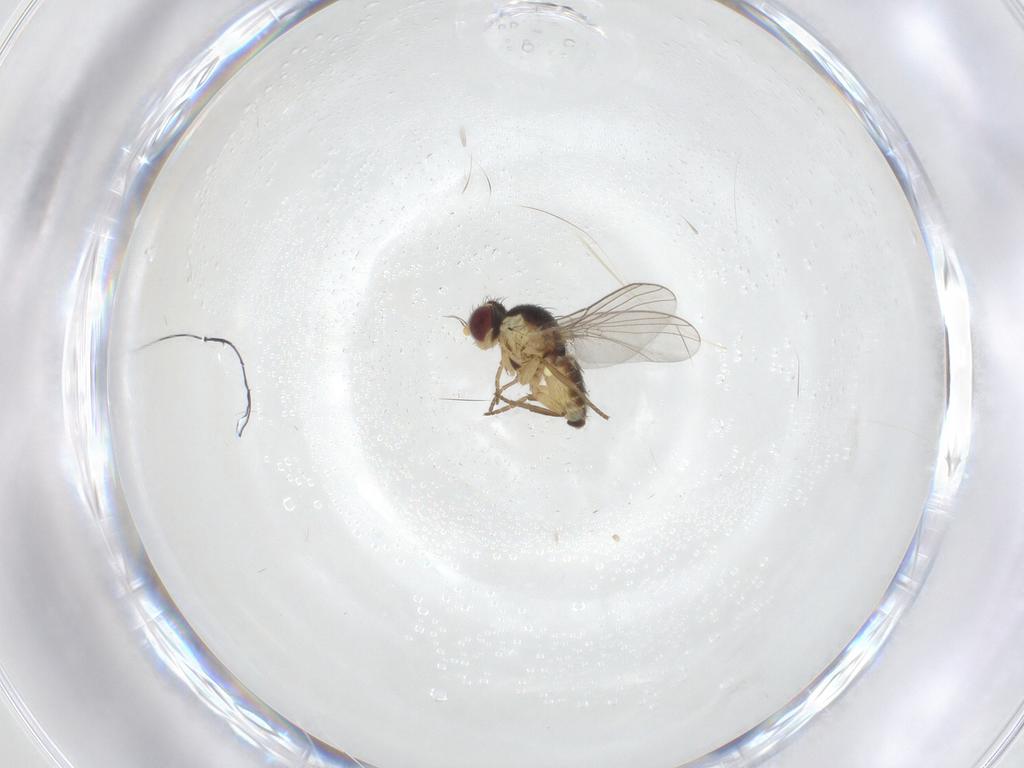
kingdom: Animalia
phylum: Arthropoda
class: Insecta
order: Diptera
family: Agromyzidae
